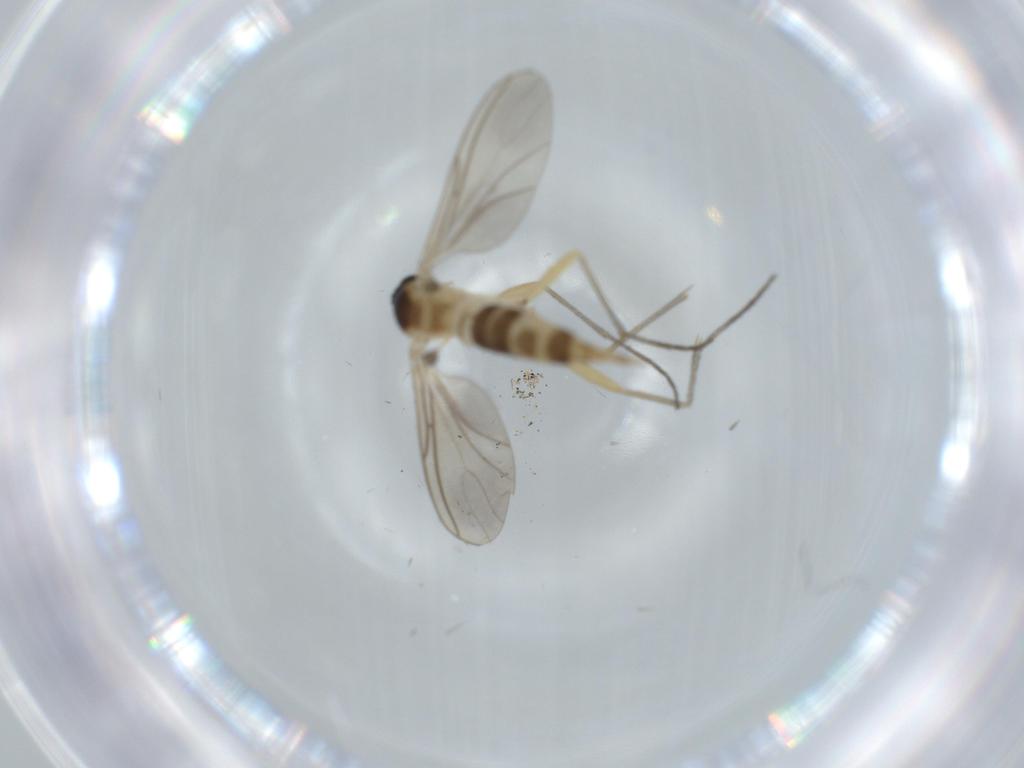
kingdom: Animalia
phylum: Arthropoda
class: Insecta
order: Diptera
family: Sciaridae
